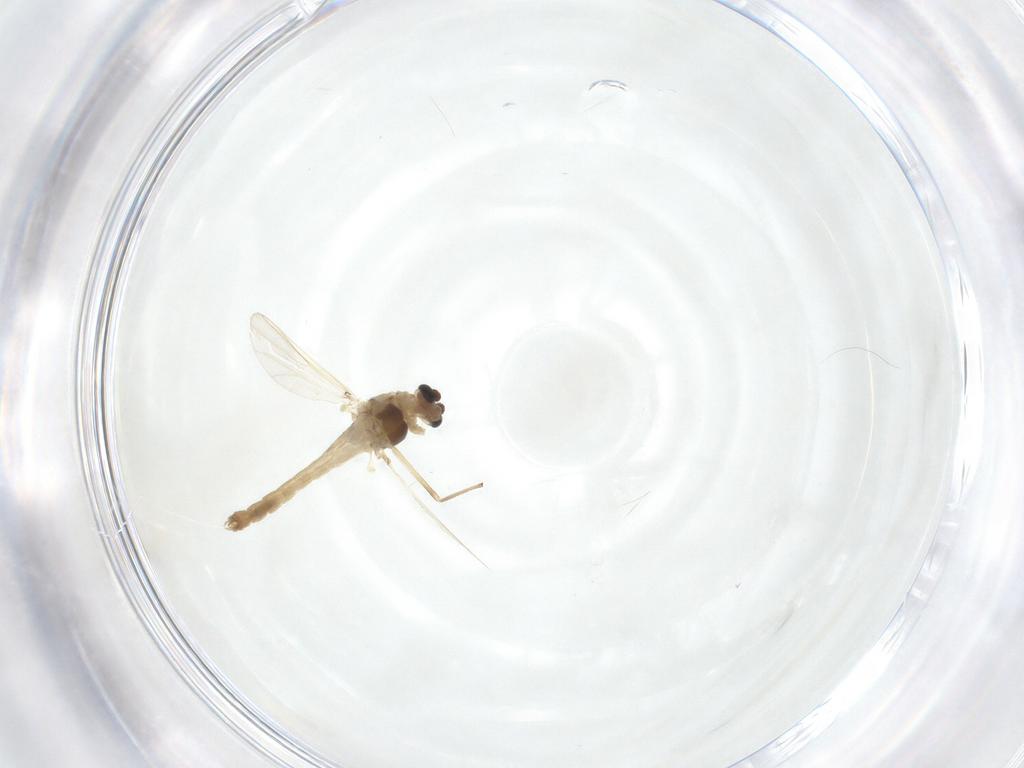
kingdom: Animalia
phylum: Arthropoda
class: Insecta
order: Diptera
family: Chironomidae
